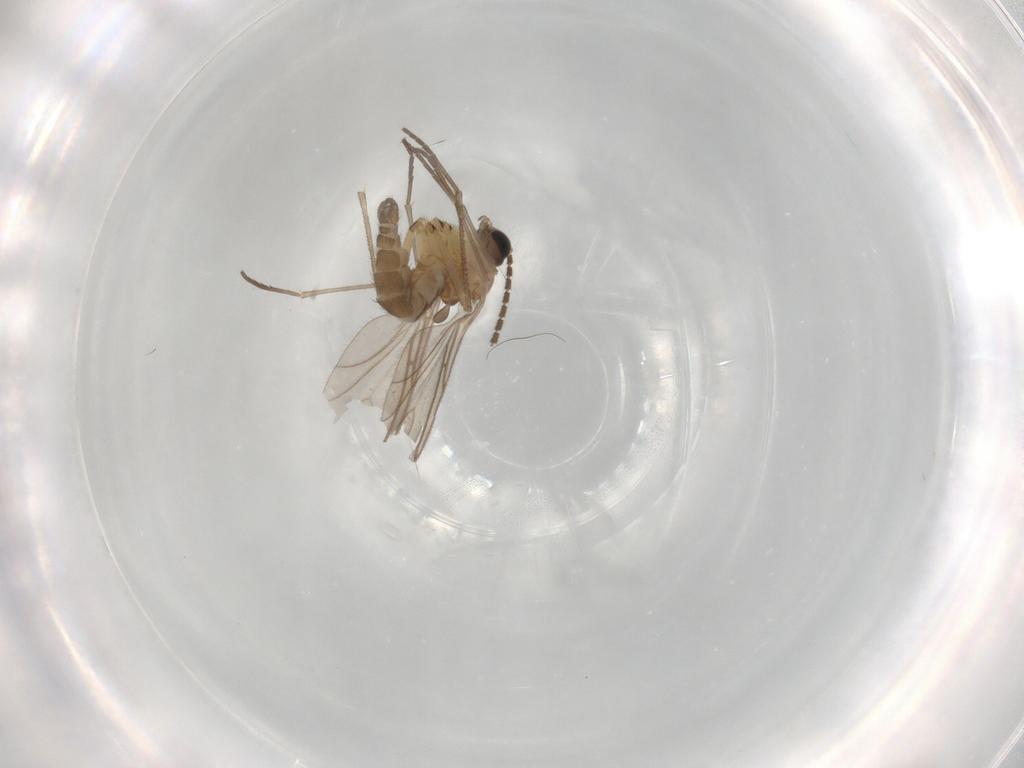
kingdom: Animalia
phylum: Arthropoda
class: Insecta
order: Diptera
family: Sciaridae
